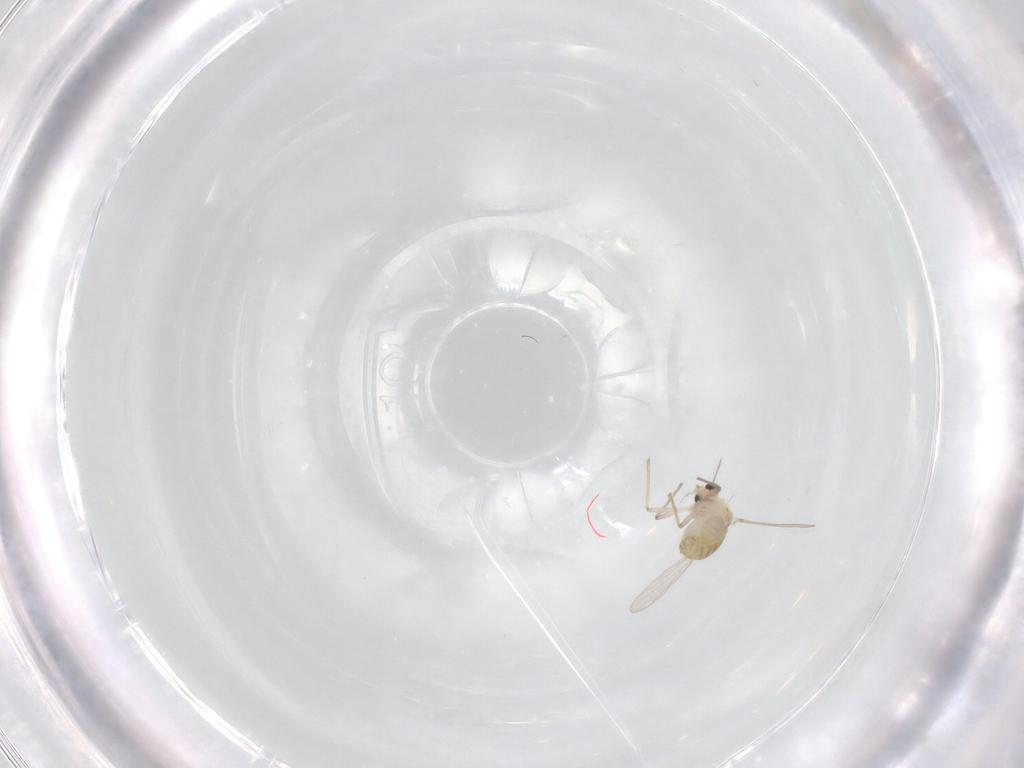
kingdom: Animalia
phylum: Arthropoda
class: Insecta
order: Diptera
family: Chironomidae
